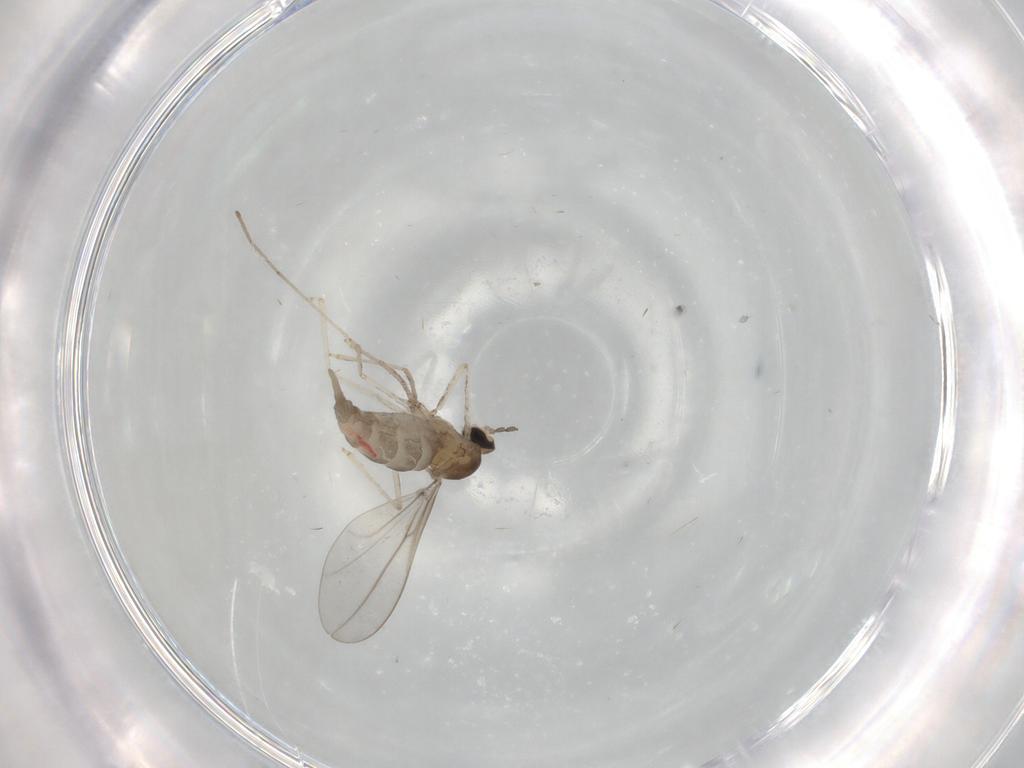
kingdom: Animalia
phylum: Arthropoda
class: Insecta
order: Diptera
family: Cecidomyiidae
